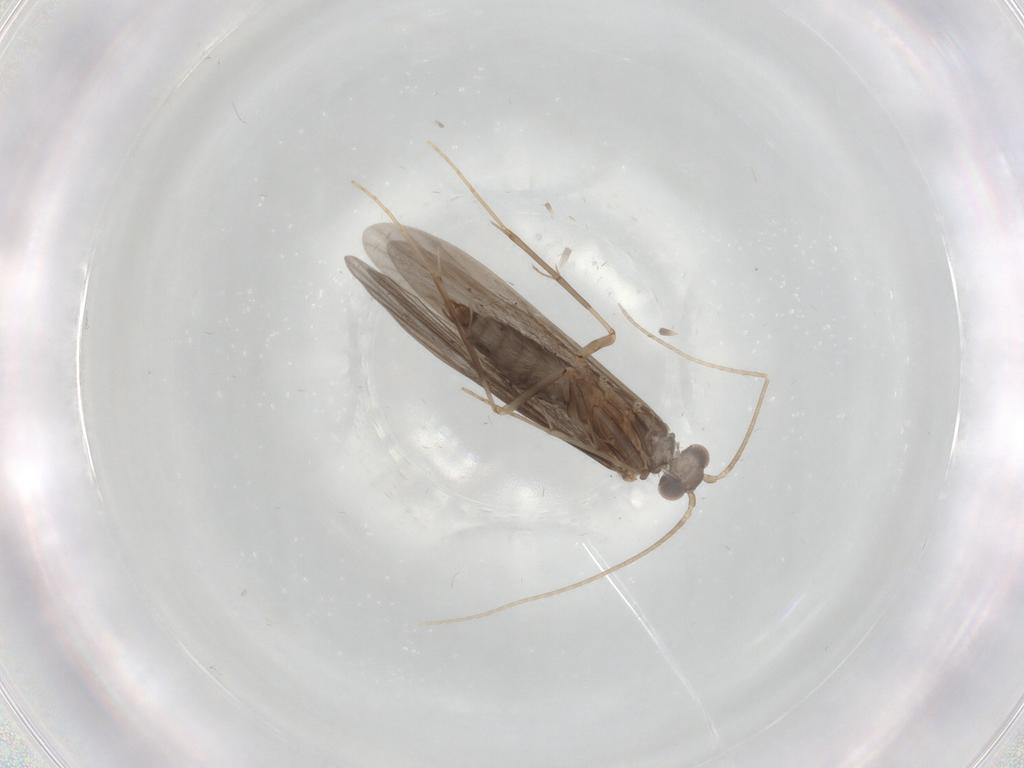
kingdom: Animalia
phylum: Arthropoda
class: Insecta
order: Trichoptera
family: Xiphocentronidae
